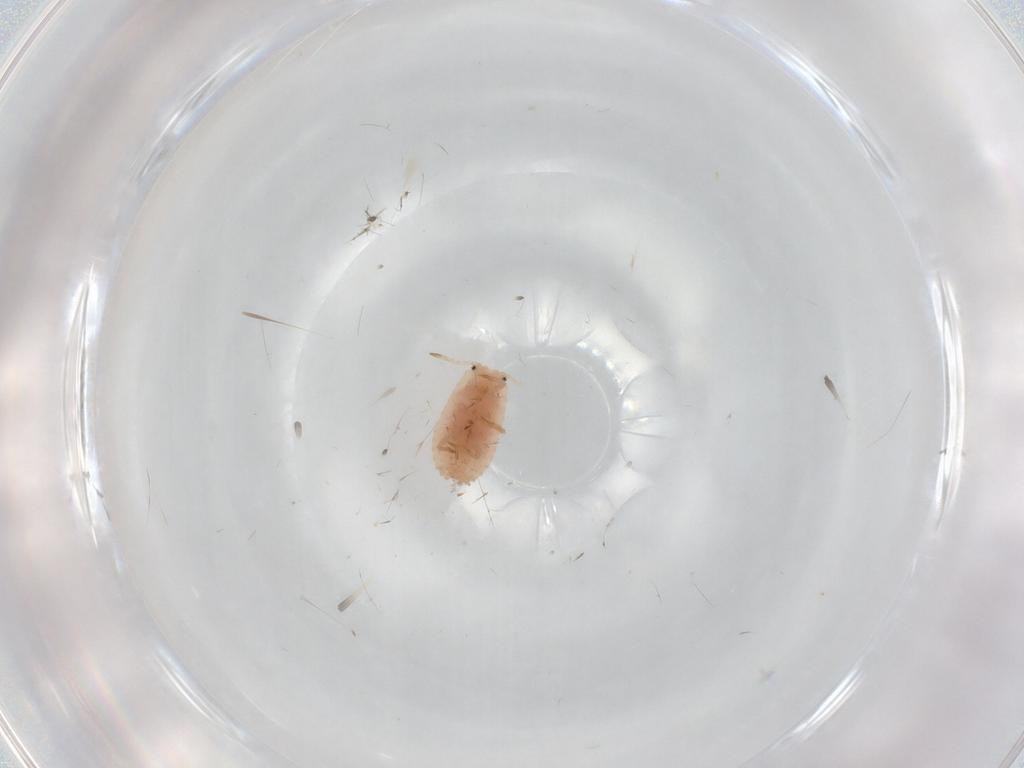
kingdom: Animalia
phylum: Arthropoda
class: Insecta
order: Hemiptera
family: Coccoidea_incertae_sedis
